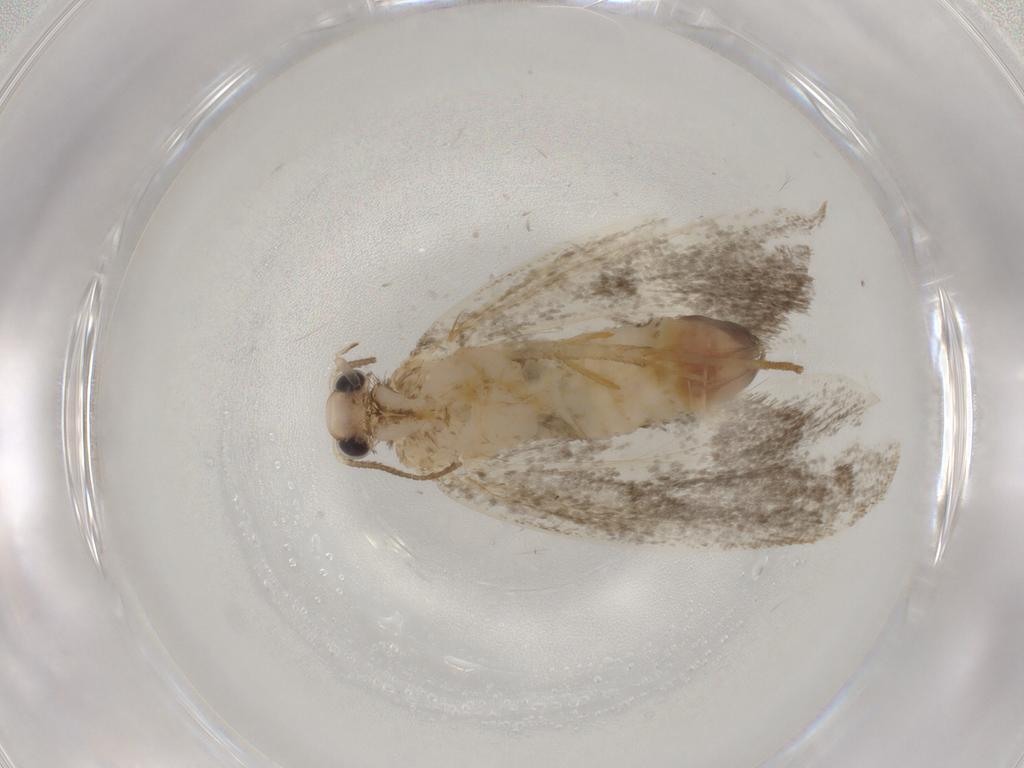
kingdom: Animalia
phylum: Arthropoda
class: Insecta
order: Lepidoptera
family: Psychidae
